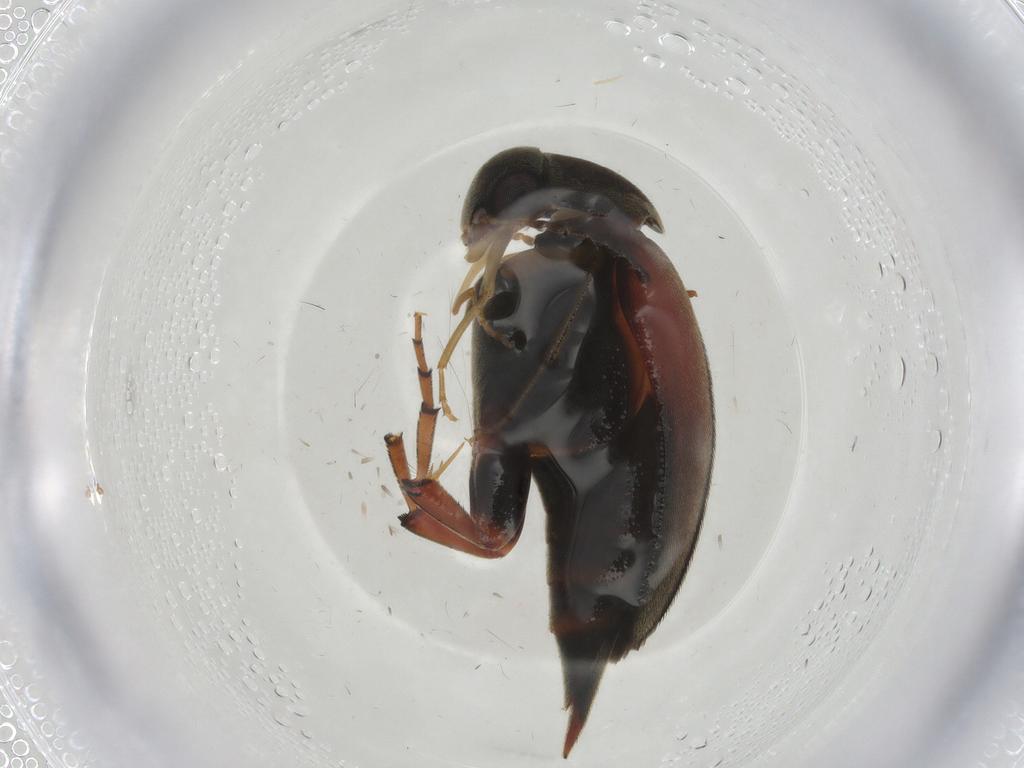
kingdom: Animalia
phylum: Arthropoda
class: Insecta
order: Coleoptera
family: Mordellidae
